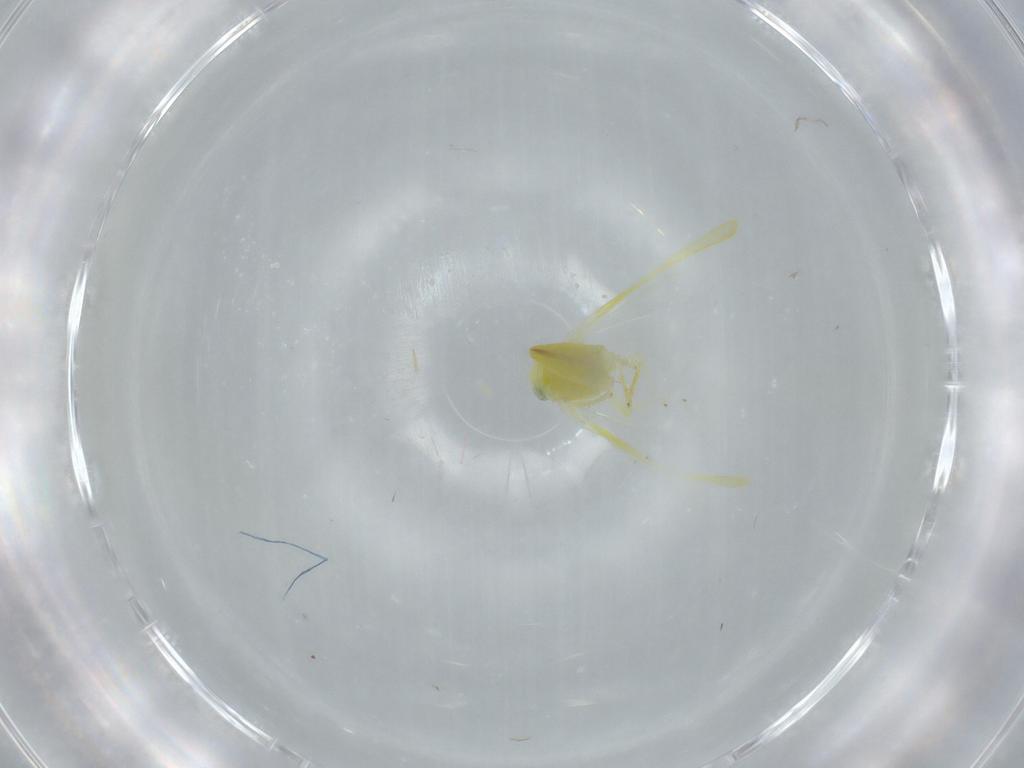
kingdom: Animalia
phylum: Arthropoda
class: Insecta
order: Hemiptera
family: Cicadellidae
